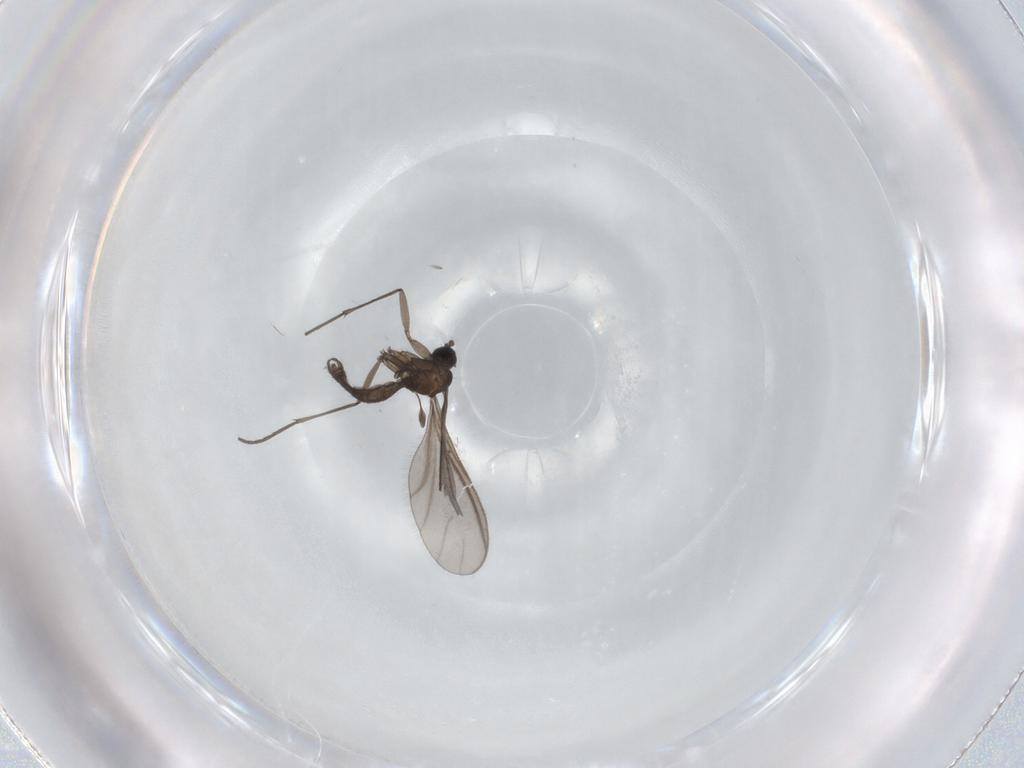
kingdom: Animalia
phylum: Arthropoda
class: Insecta
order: Diptera
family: Sciaridae
